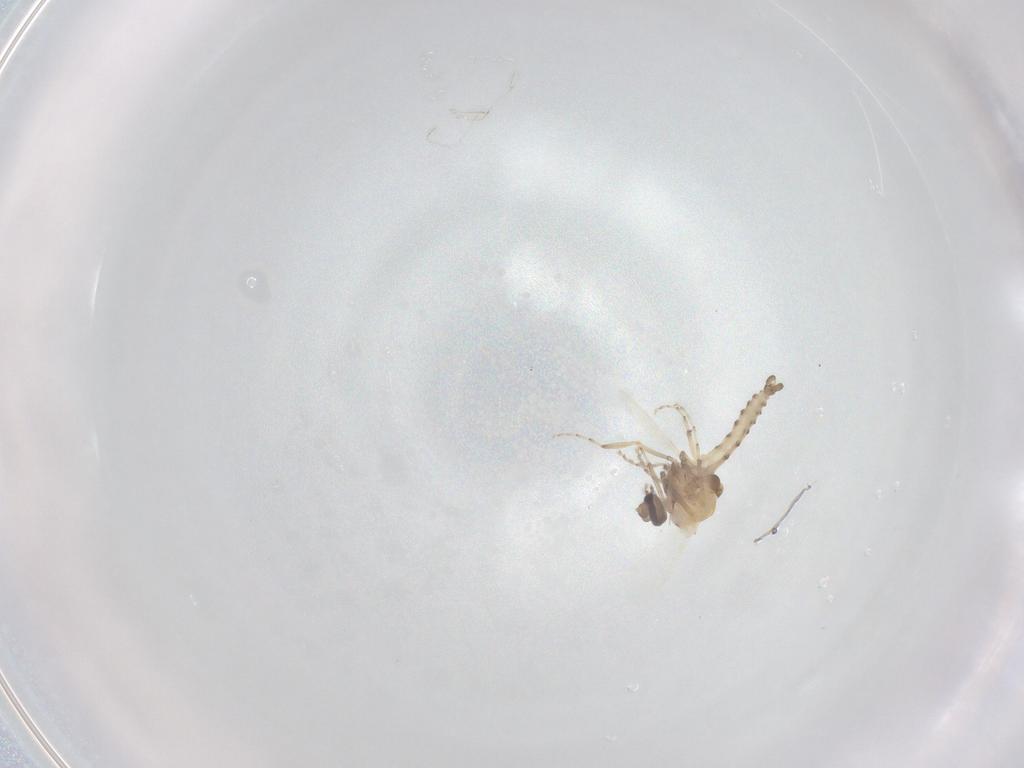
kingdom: Animalia
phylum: Arthropoda
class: Insecta
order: Diptera
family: Ceratopogonidae
